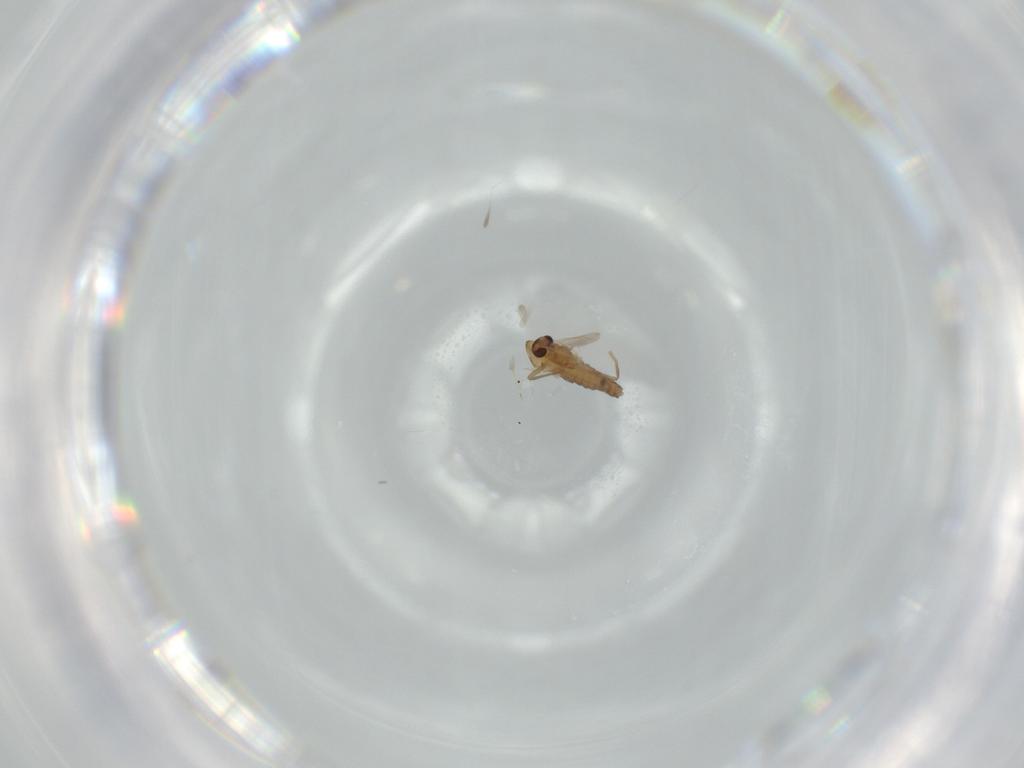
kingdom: Animalia
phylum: Arthropoda
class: Insecta
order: Diptera
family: Chironomidae
